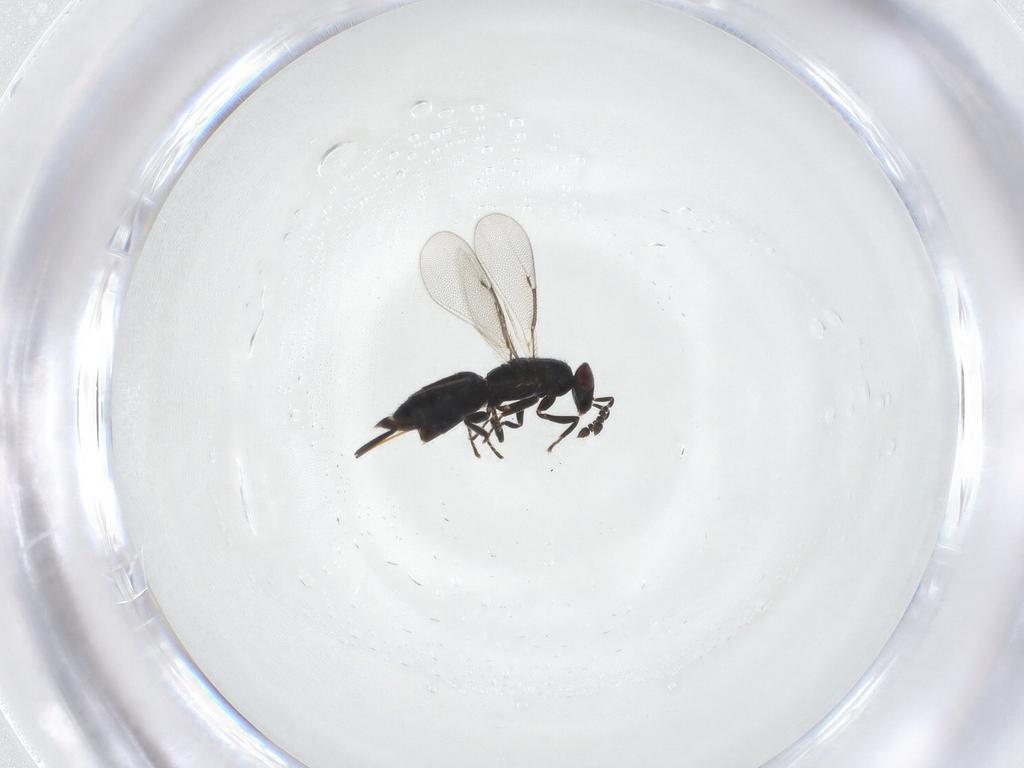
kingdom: Animalia
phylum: Arthropoda
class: Insecta
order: Hymenoptera
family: Eulophidae
